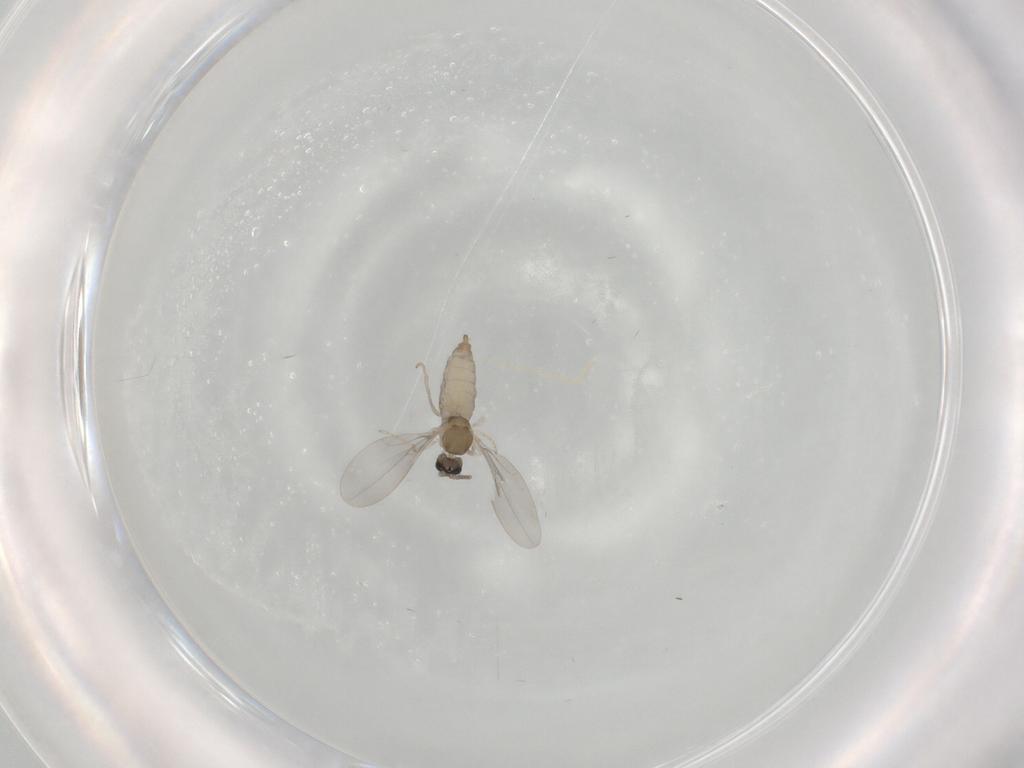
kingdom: Animalia
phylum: Arthropoda
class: Insecta
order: Diptera
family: Cecidomyiidae
